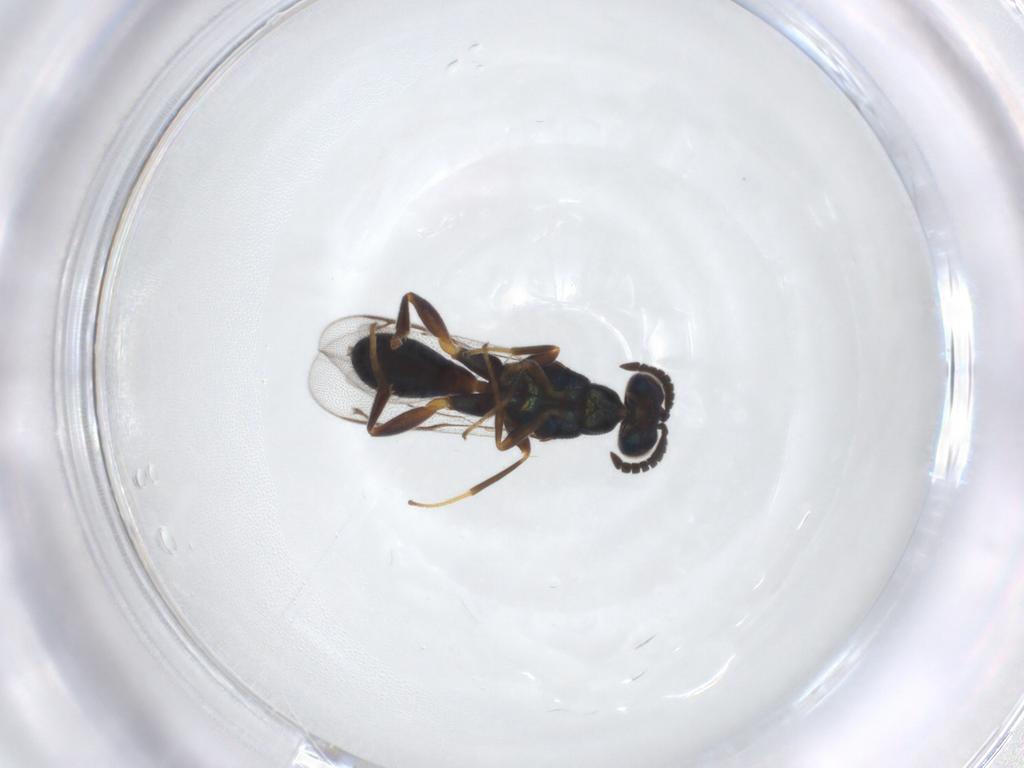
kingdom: Animalia
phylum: Arthropoda
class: Insecta
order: Hymenoptera
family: Cleonyminae
